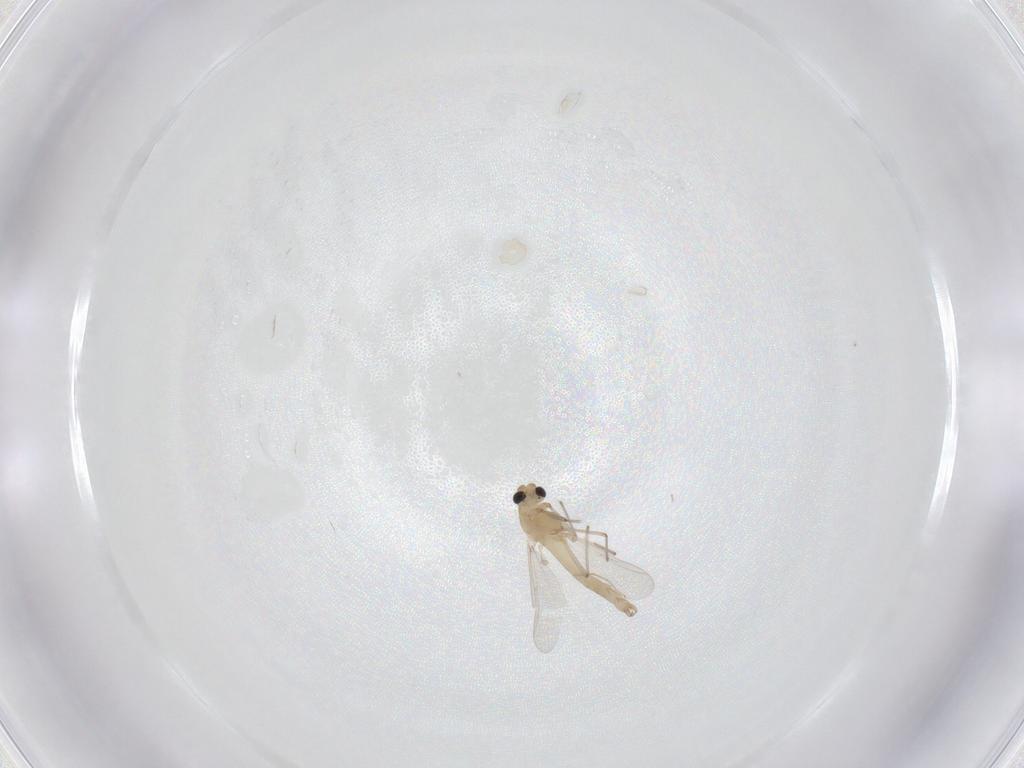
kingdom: Animalia
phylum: Arthropoda
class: Insecta
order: Diptera
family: Chironomidae
